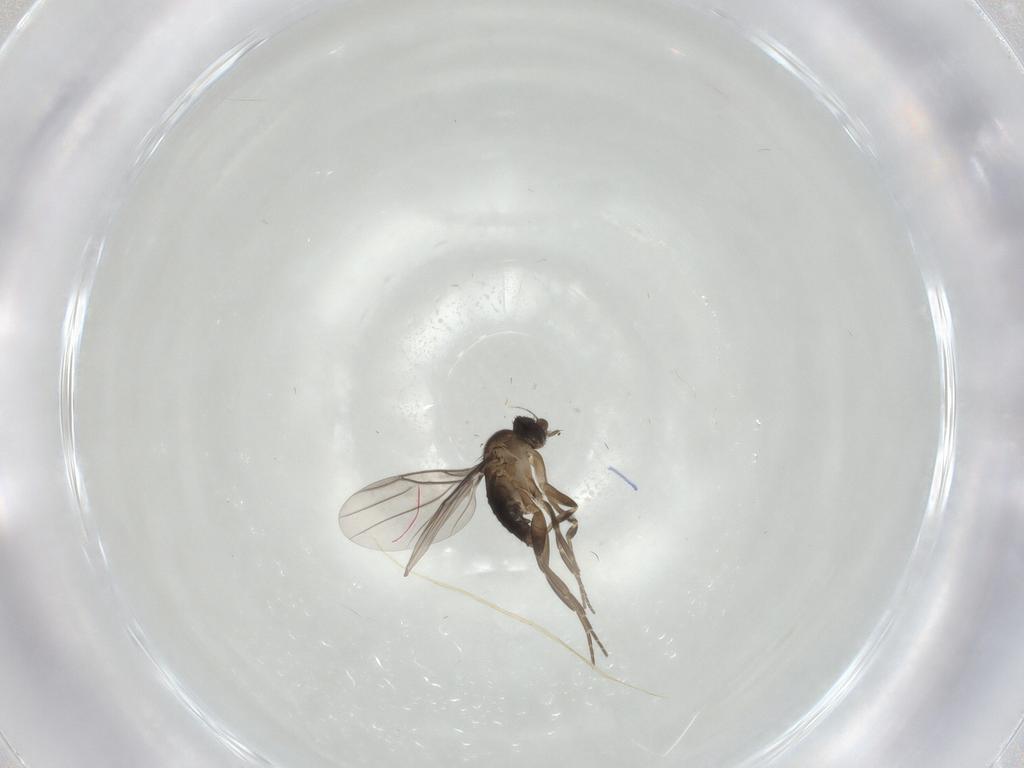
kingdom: Animalia
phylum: Arthropoda
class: Insecta
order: Diptera
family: Phoridae
